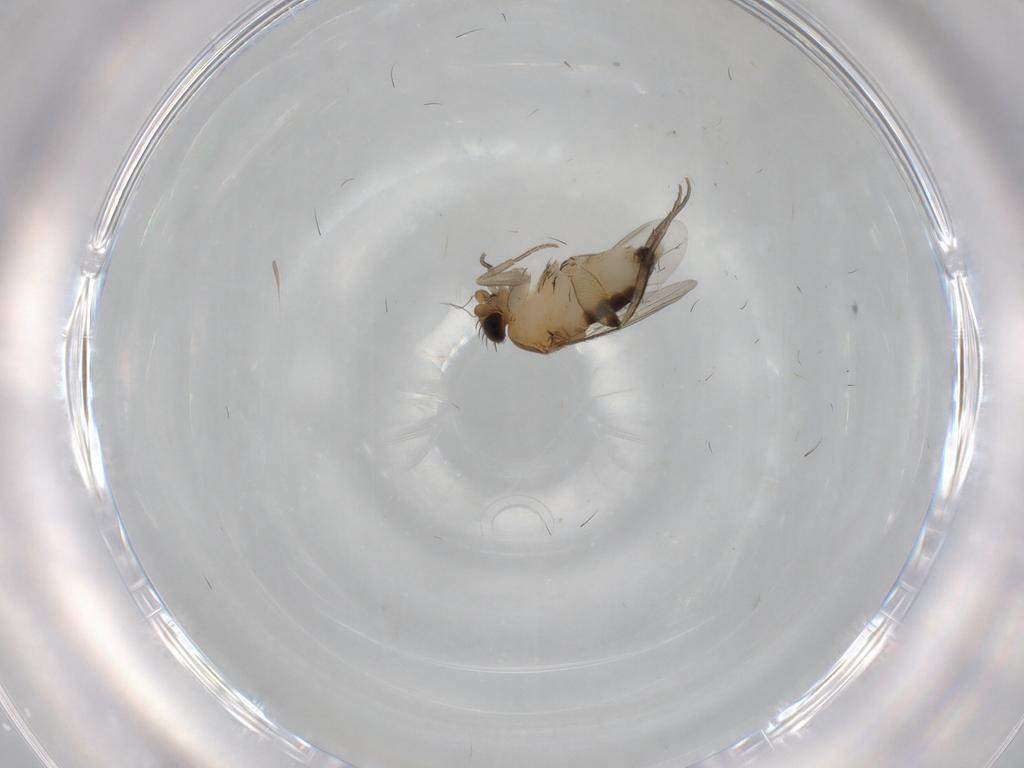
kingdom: Animalia
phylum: Arthropoda
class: Insecta
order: Diptera
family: Phoridae
